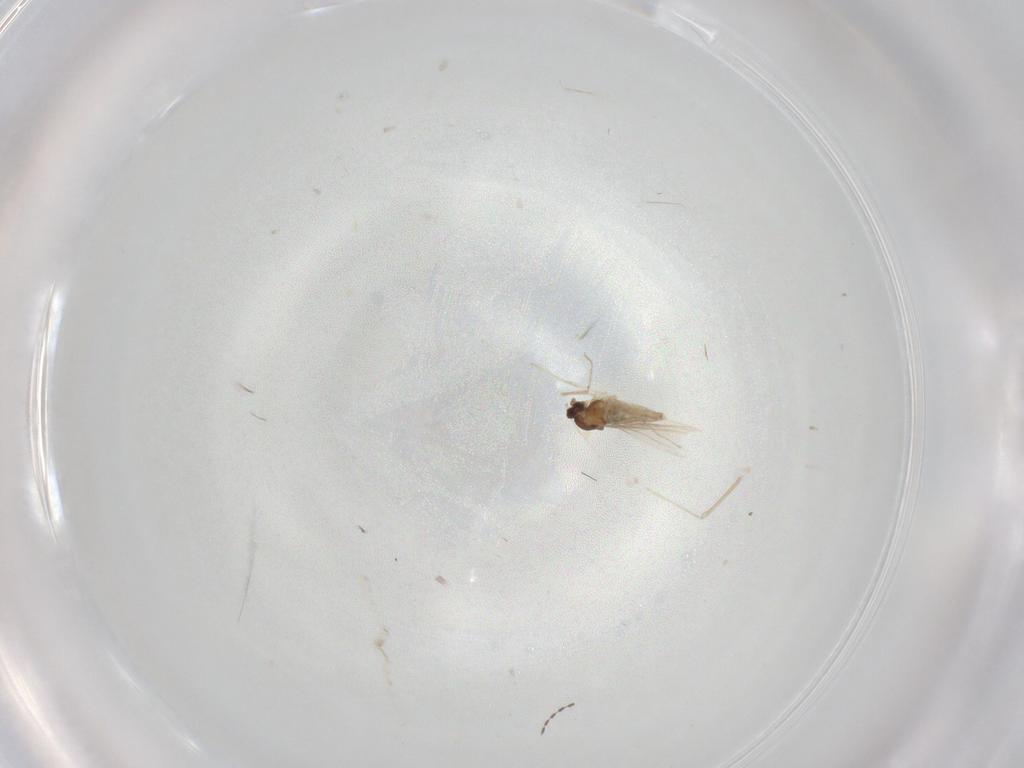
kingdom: Animalia
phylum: Arthropoda
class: Insecta
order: Diptera
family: Cecidomyiidae
